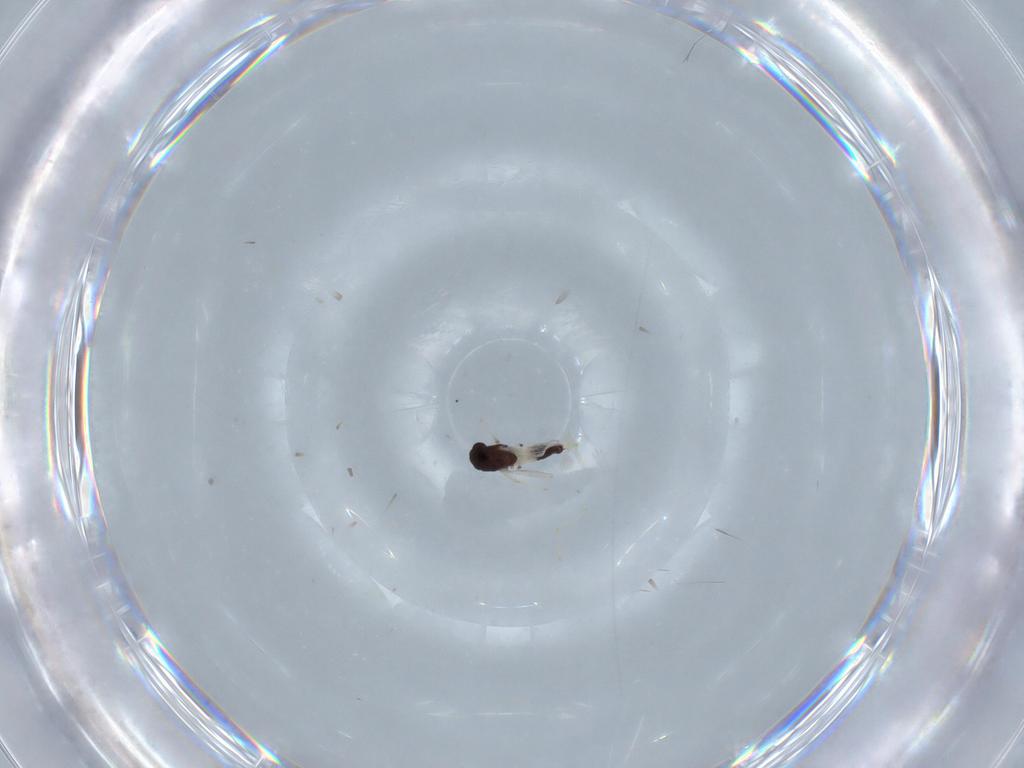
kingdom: Animalia
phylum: Arthropoda
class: Insecta
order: Diptera
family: Chironomidae
